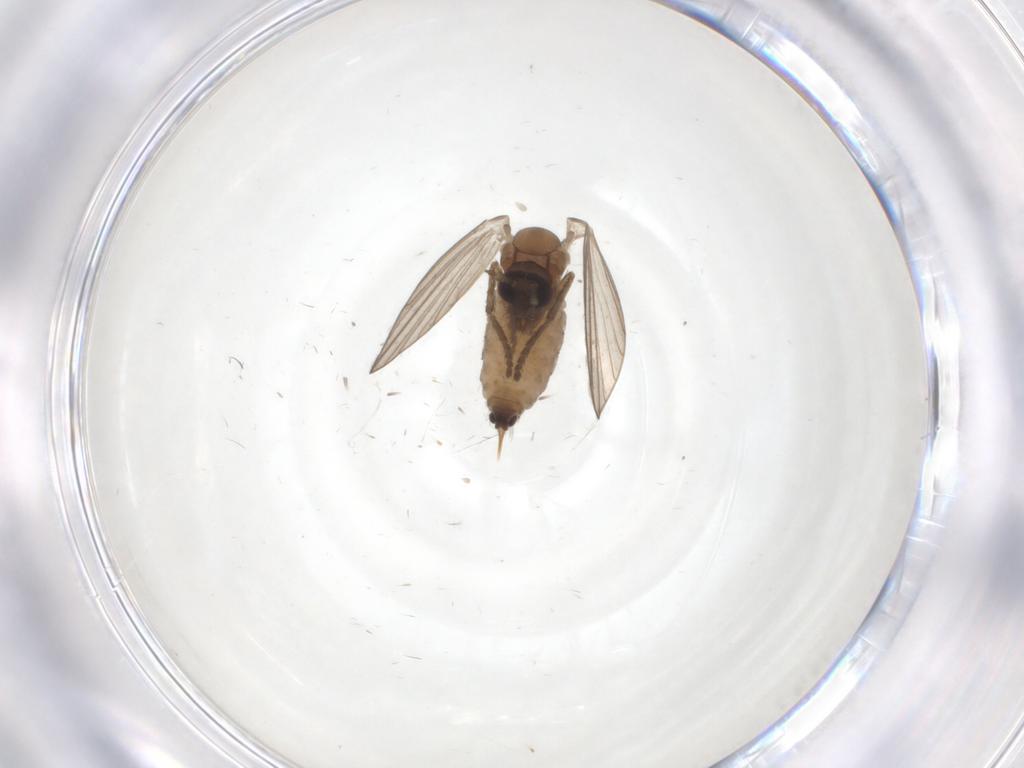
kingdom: Animalia
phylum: Arthropoda
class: Insecta
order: Diptera
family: Psychodidae
